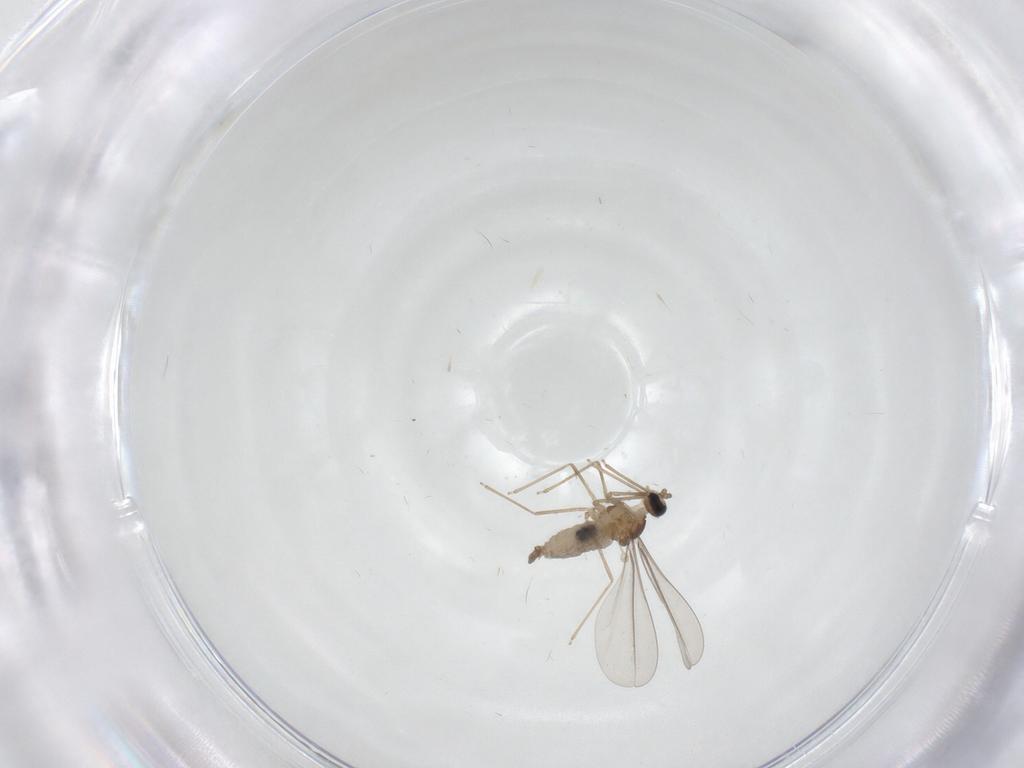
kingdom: Animalia
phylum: Arthropoda
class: Insecta
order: Diptera
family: Cecidomyiidae
